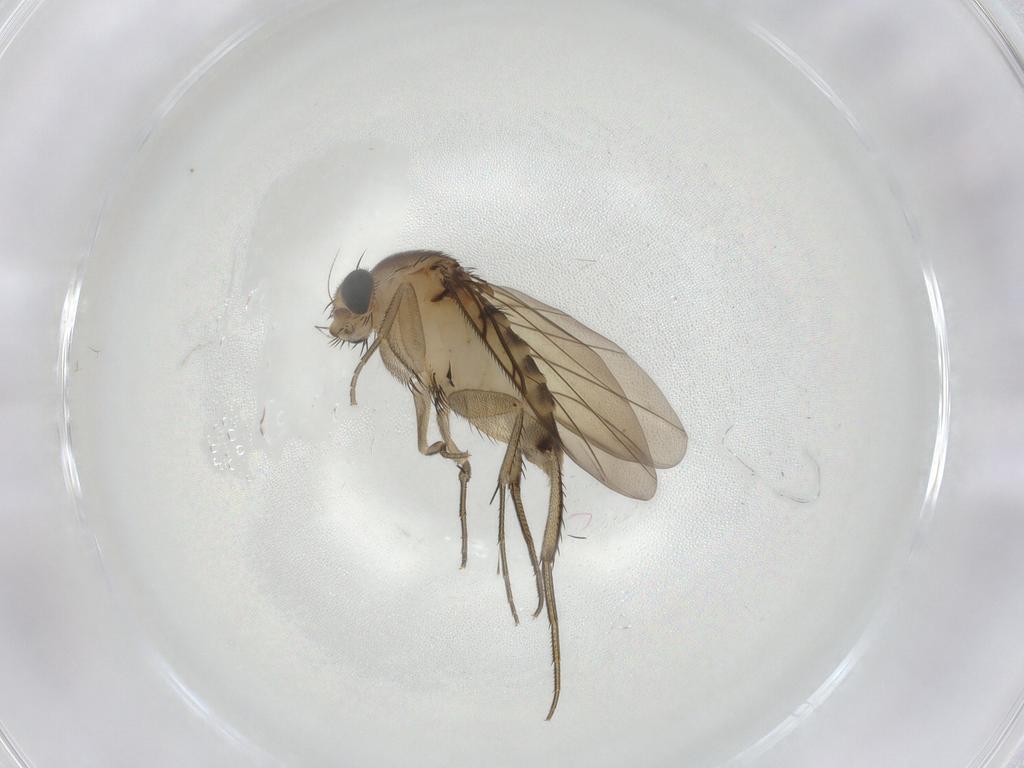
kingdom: Animalia
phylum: Arthropoda
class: Insecta
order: Diptera
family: Phoridae
